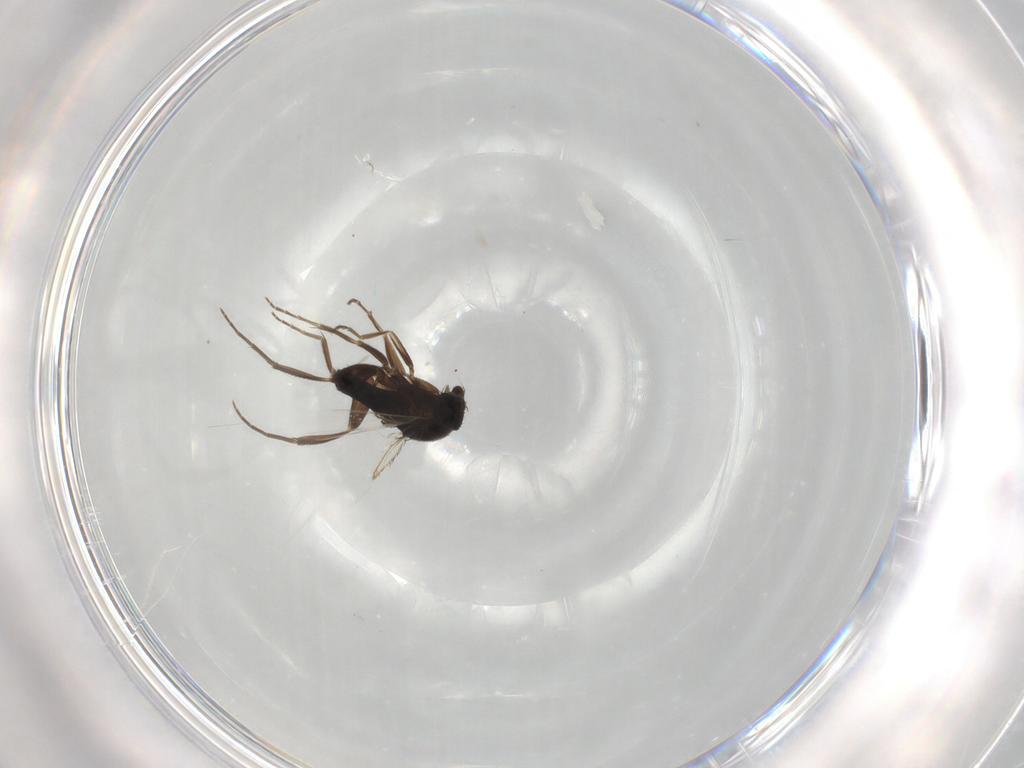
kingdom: Animalia
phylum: Arthropoda
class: Insecta
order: Diptera
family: Phoridae
